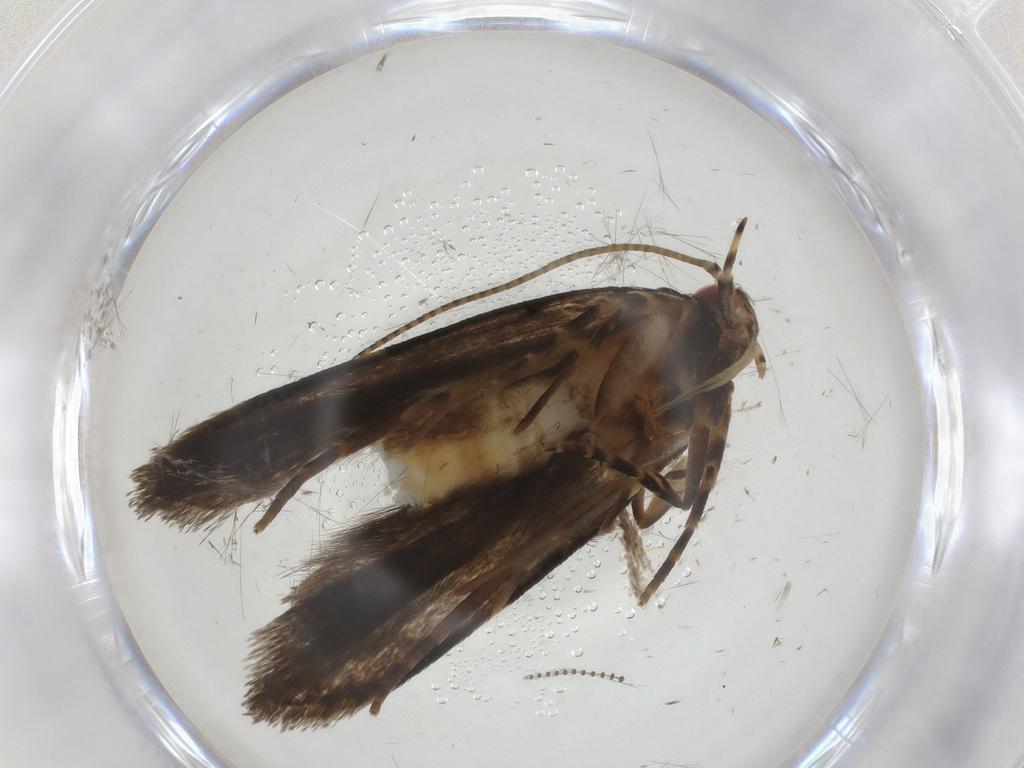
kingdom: Animalia
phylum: Arthropoda
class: Insecta
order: Lepidoptera
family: Gelechiidae
